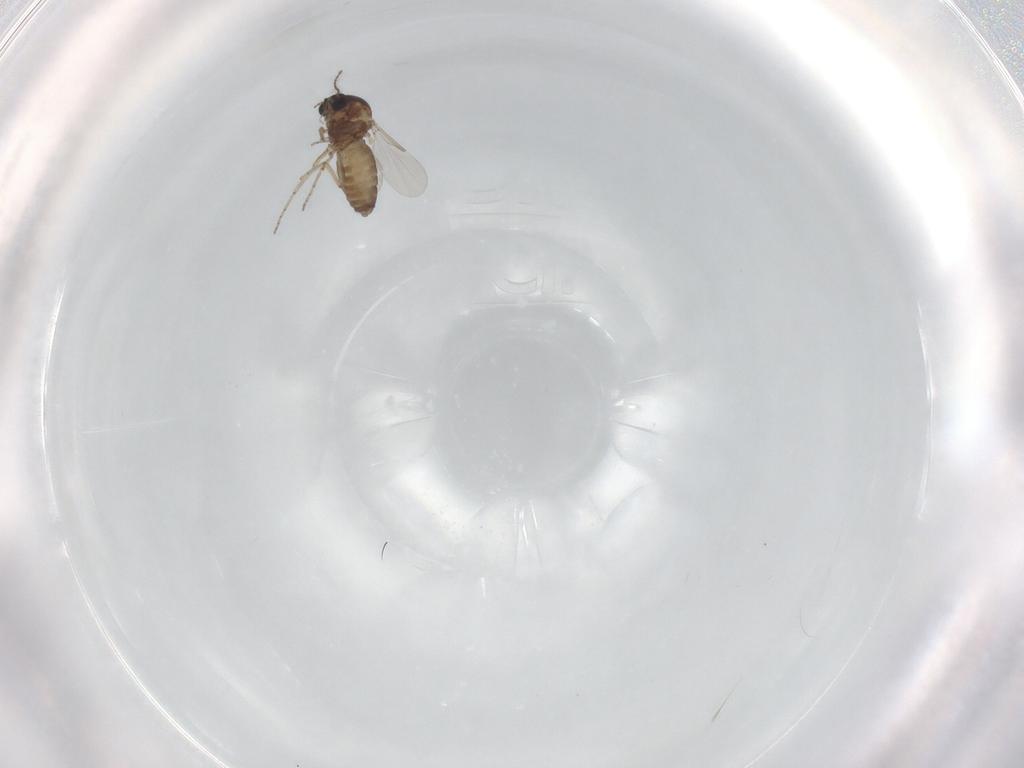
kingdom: Animalia
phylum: Arthropoda
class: Insecta
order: Diptera
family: Ceratopogonidae
